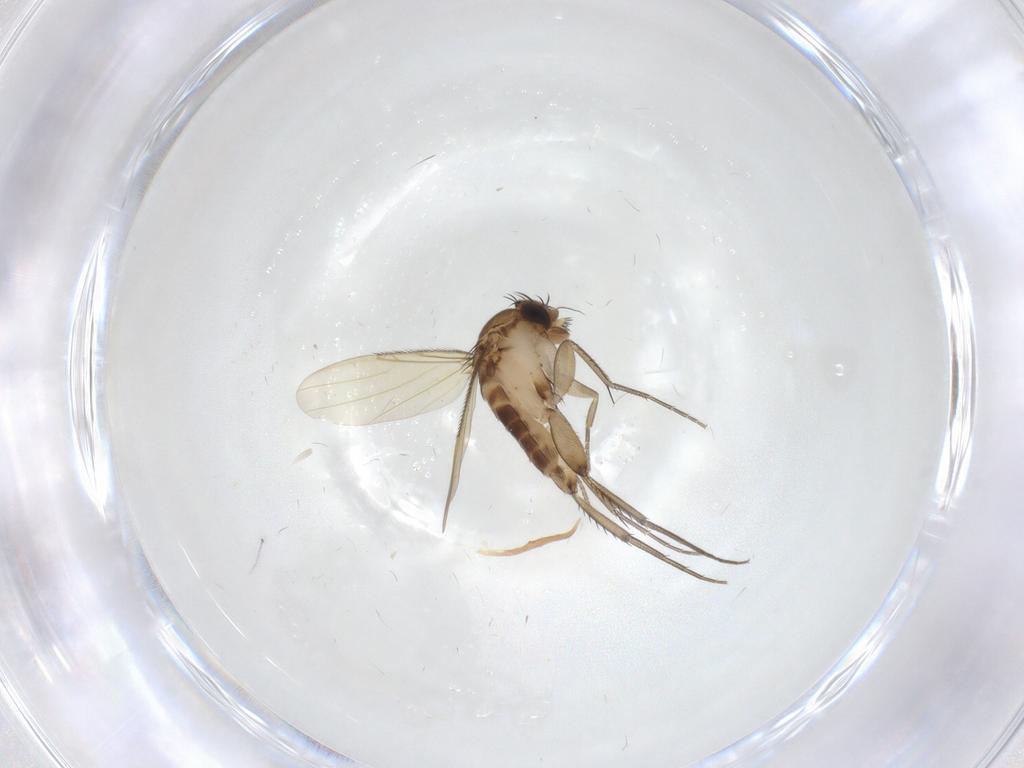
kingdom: Animalia
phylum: Arthropoda
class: Insecta
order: Diptera
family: Phoridae
